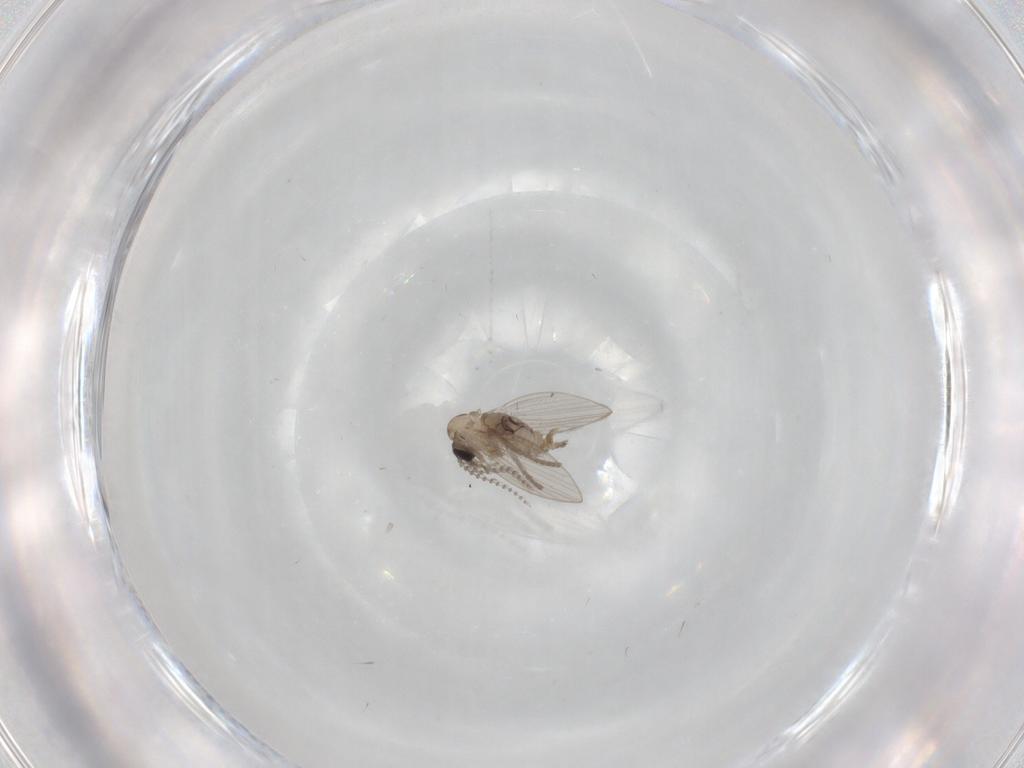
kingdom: Animalia
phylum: Arthropoda
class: Insecta
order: Diptera
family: Psychodidae
